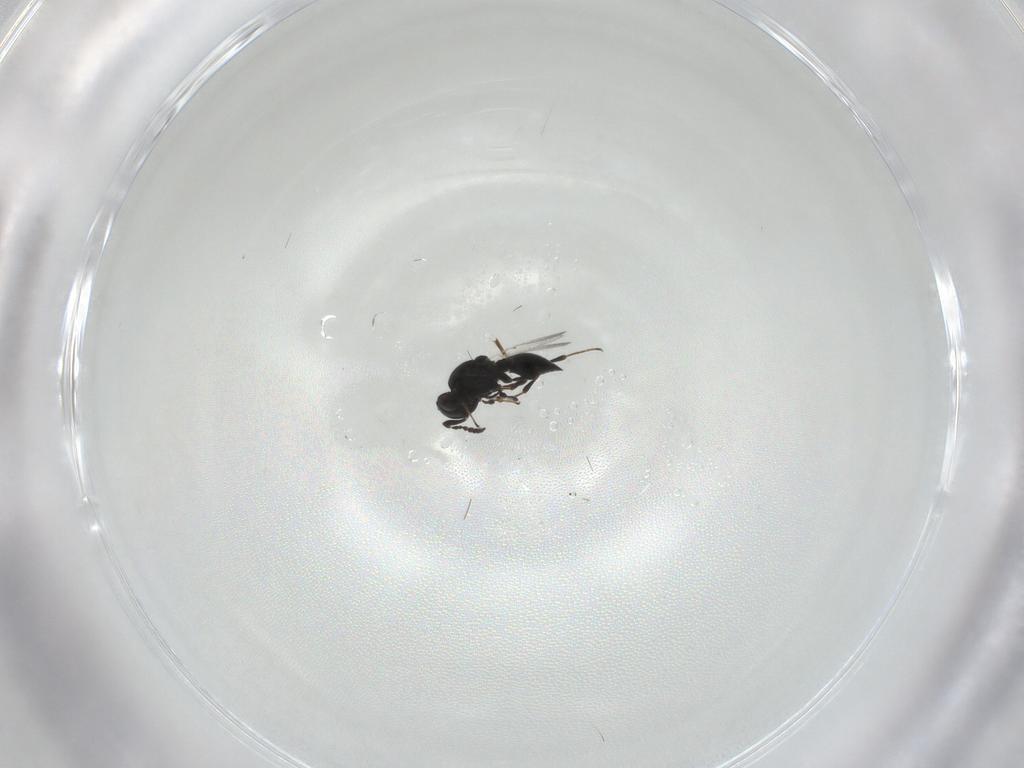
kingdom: Animalia
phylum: Arthropoda
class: Insecta
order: Hymenoptera
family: Platygastridae
